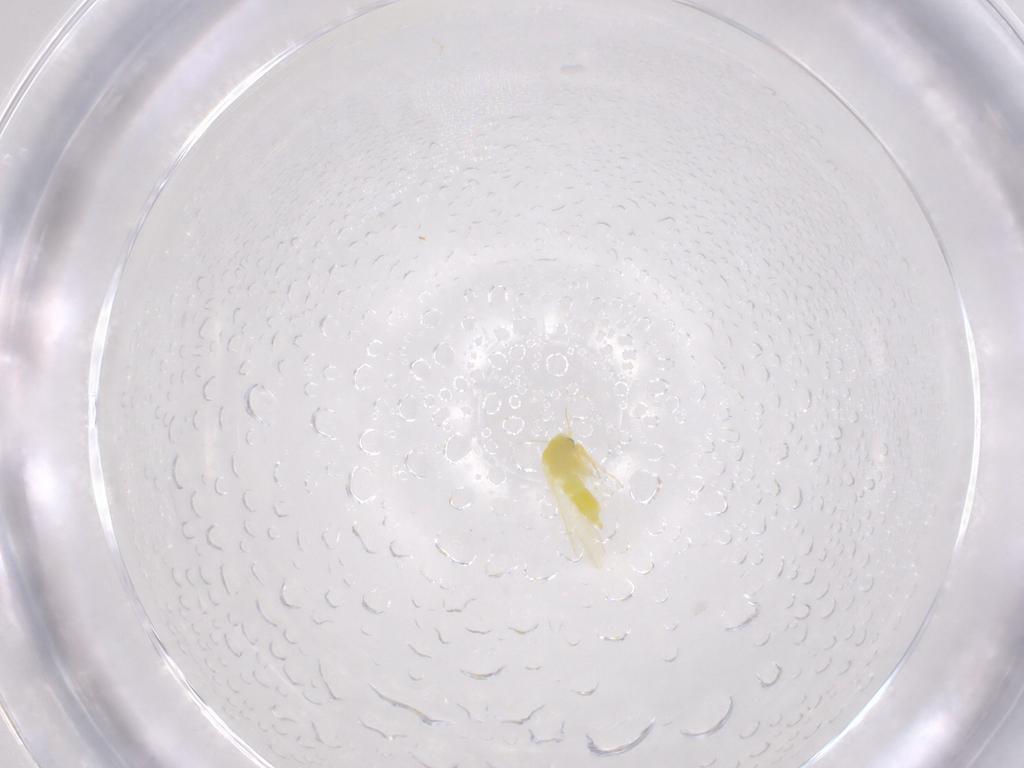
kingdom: Animalia
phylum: Arthropoda
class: Insecta
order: Hemiptera
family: Aleyrodidae
